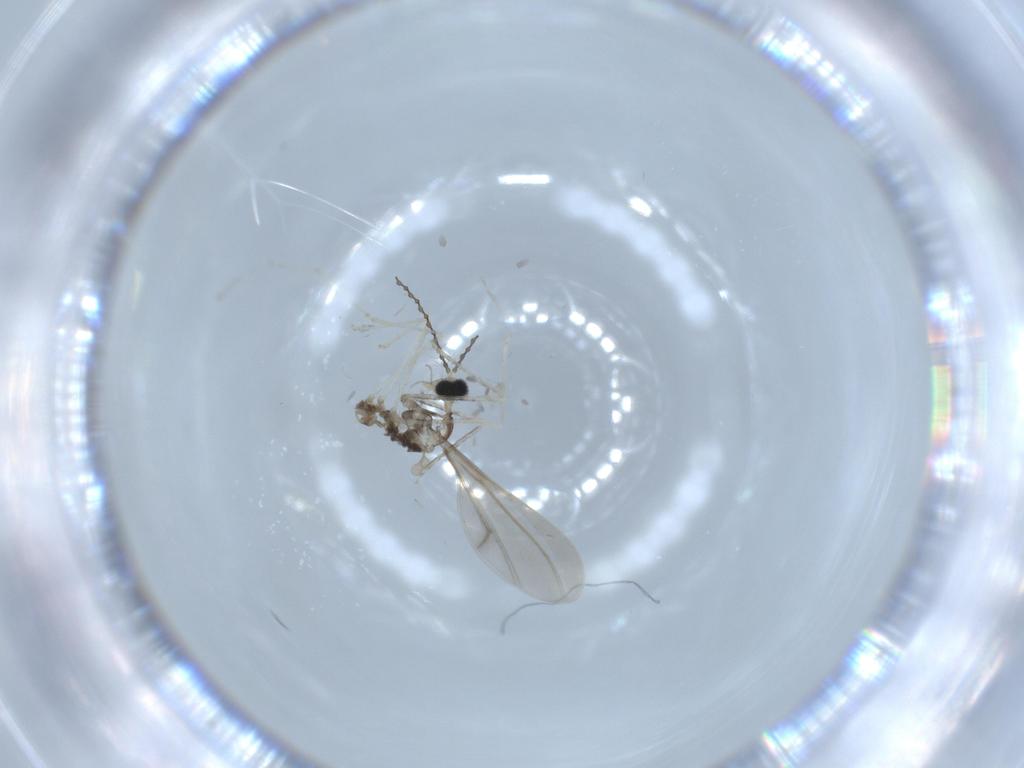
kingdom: Animalia
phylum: Arthropoda
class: Insecta
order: Diptera
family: Cecidomyiidae
